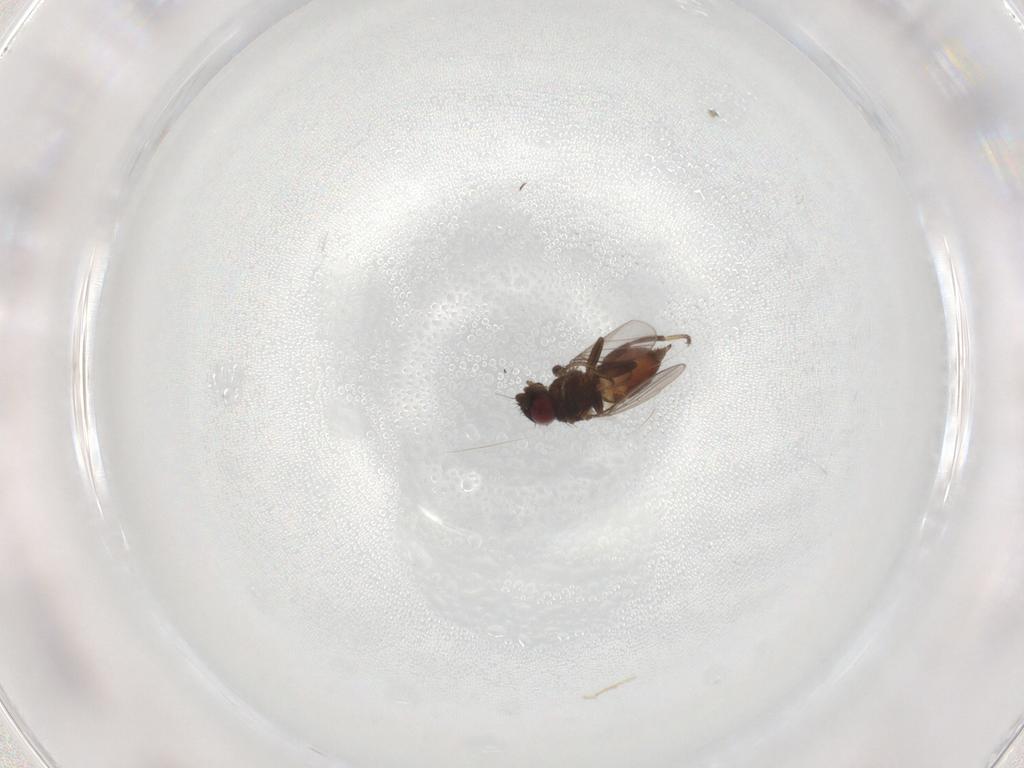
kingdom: Animalia
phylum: Arthropoda
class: Insecta
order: Diptera
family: Milichiidae
